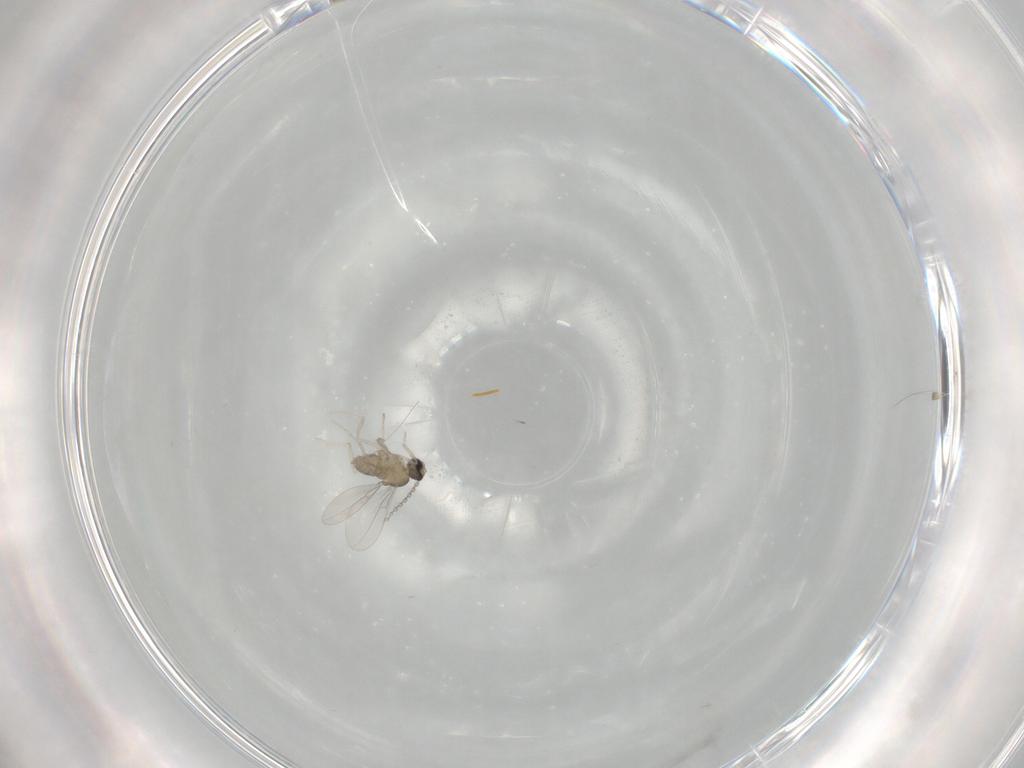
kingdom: Animalia
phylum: Arthropoda
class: Insecta
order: Diptera
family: Cecidomyiidae
